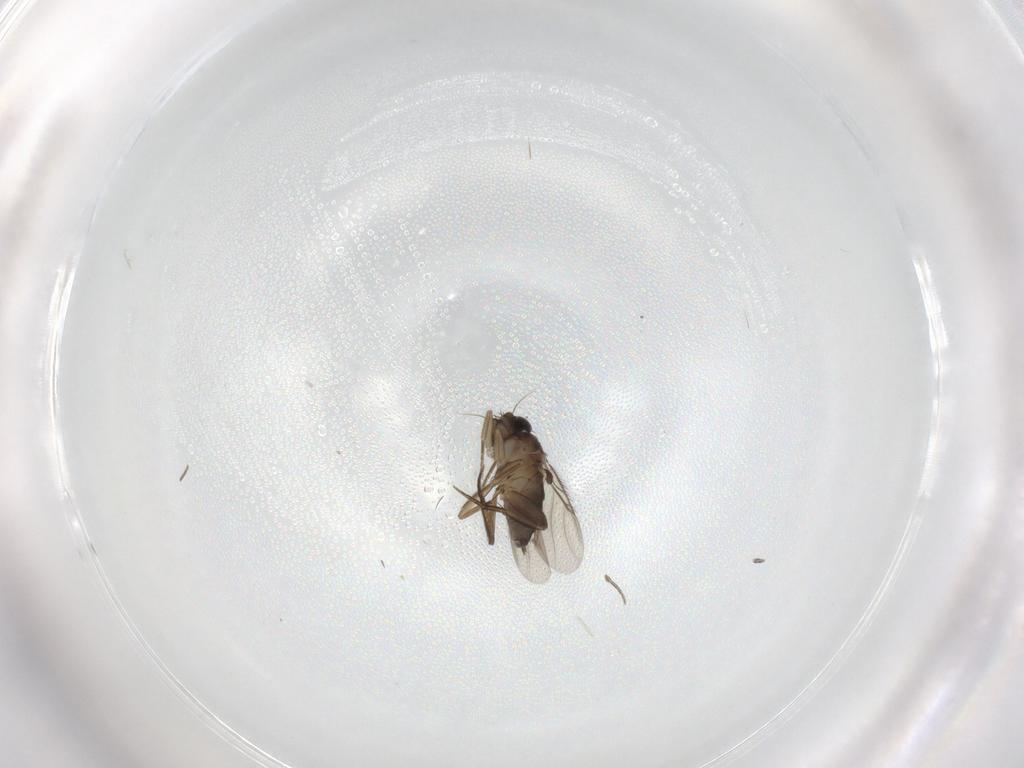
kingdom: Animalia
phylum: Arthropoda
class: Insecta
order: Diptera
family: Phoridae
